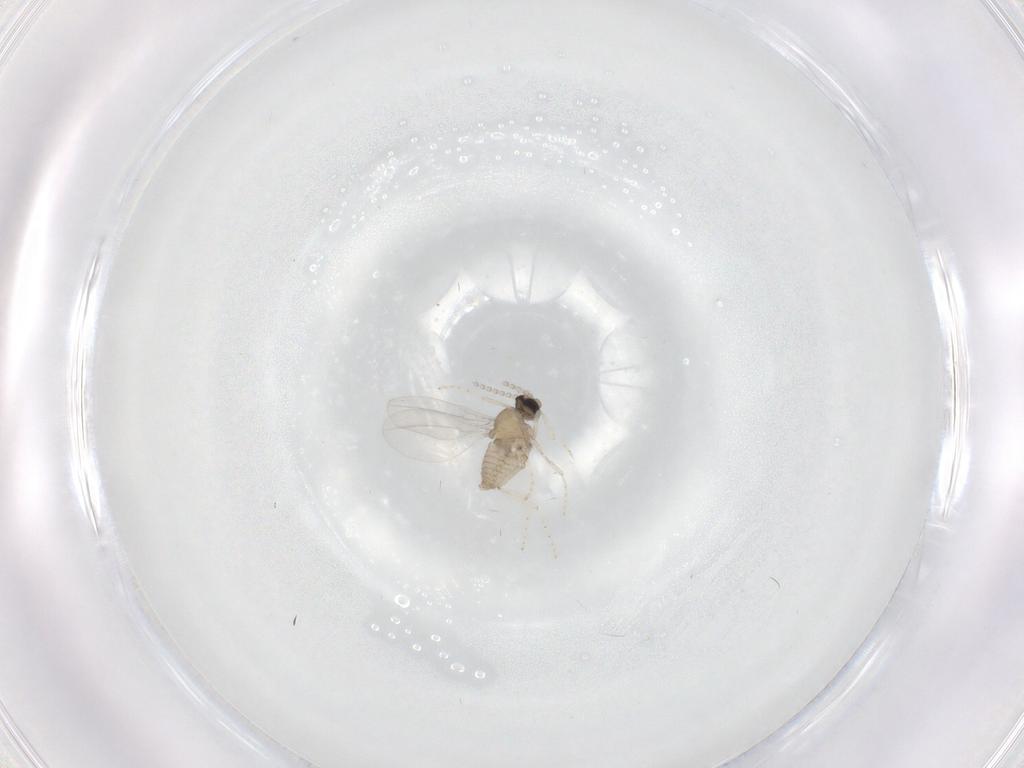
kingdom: Animalia
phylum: Arthropoda
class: Insecta
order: Diptera
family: Cecidomyiidae
